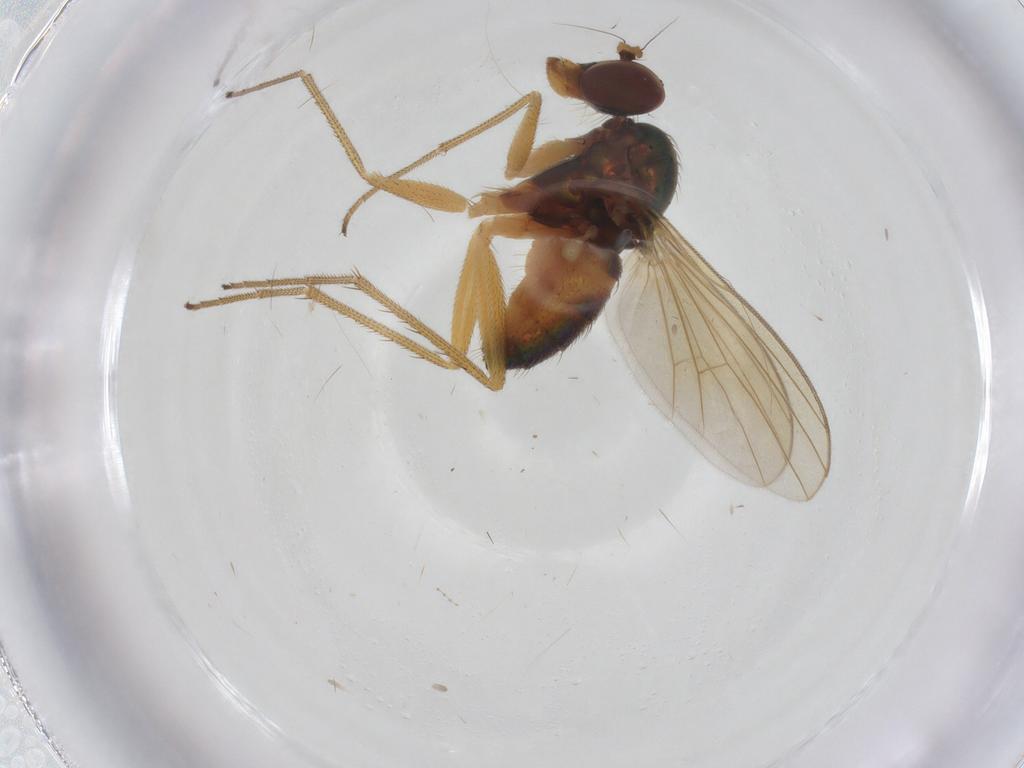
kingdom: Animalia
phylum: Arthropoda
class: Insecta
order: Diptera
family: Dolichopodidae
